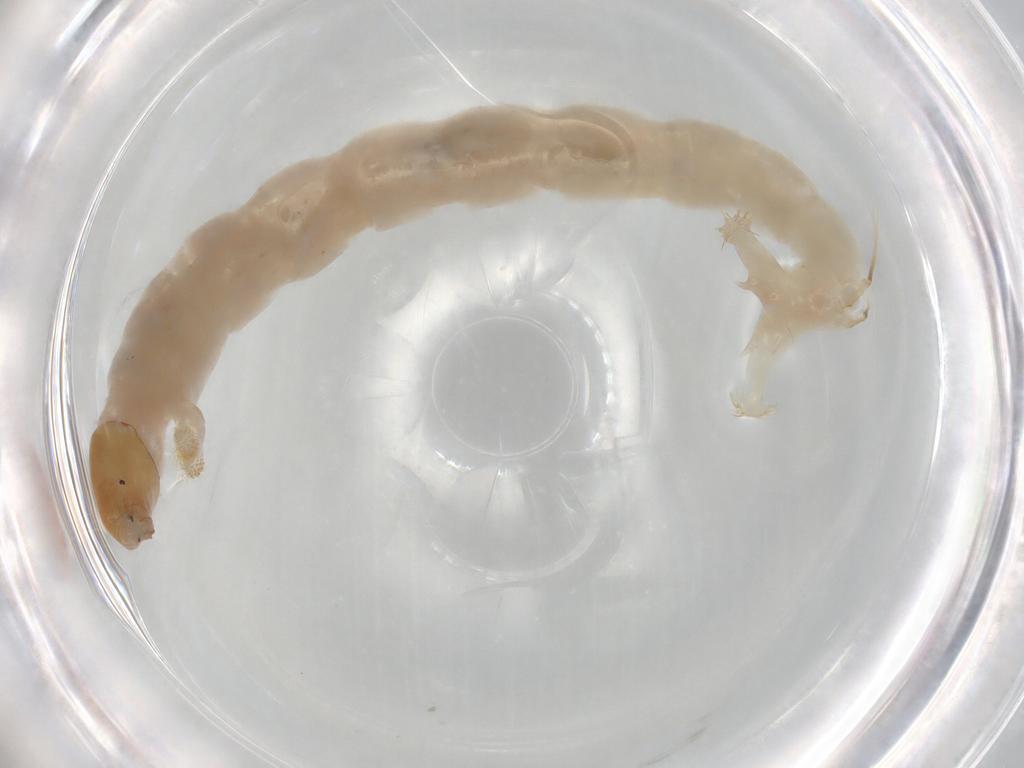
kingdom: Animalia
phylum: Arthropoda
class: Insecta
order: Diptera
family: Chironomidae
